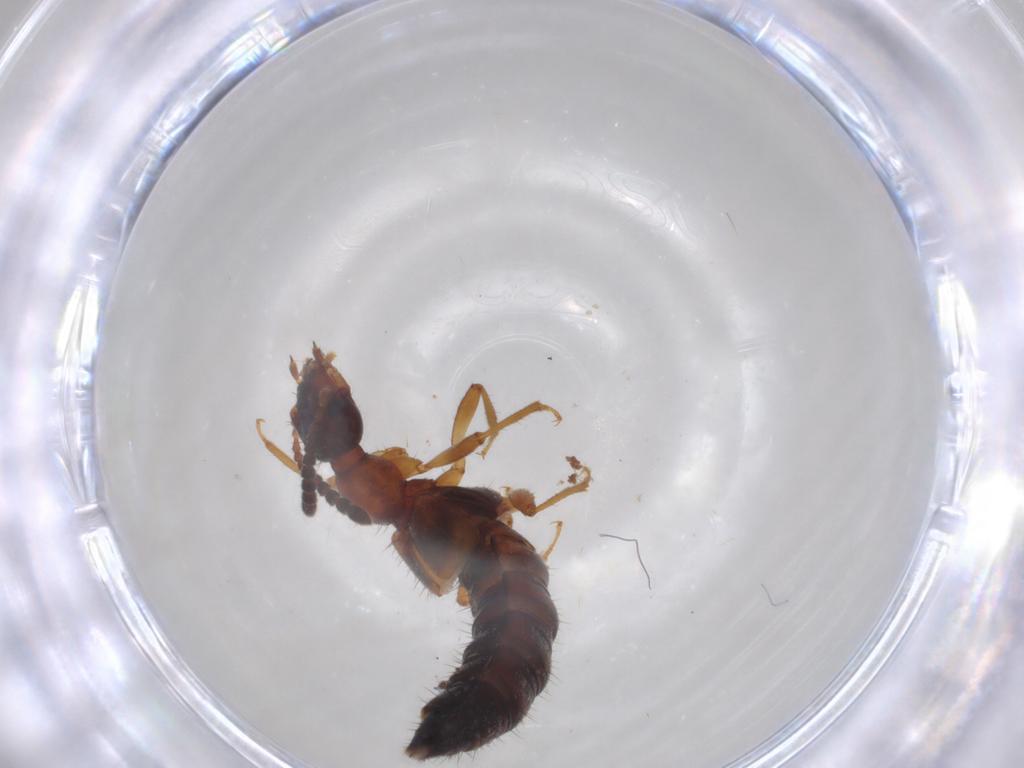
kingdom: Animalia
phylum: Arthropoda
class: Insecta
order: Coleoptera
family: Staphylinidae
